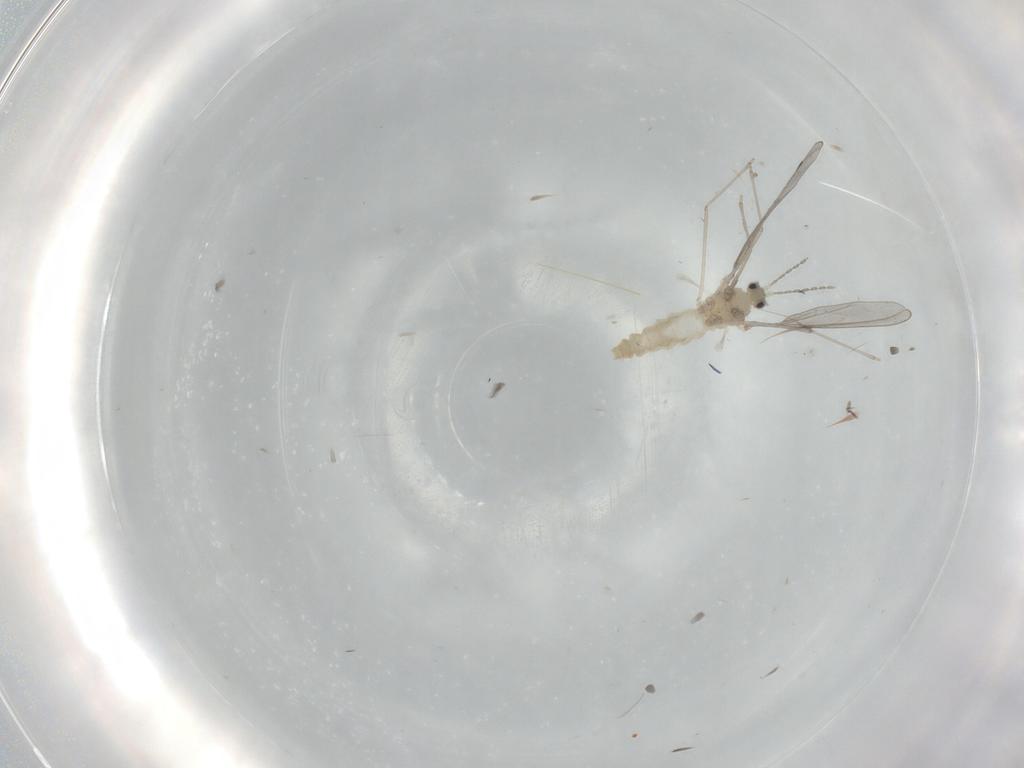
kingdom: Animalia
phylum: Arthropoda
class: Insecta
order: Diptera
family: Cecidomyiidae
